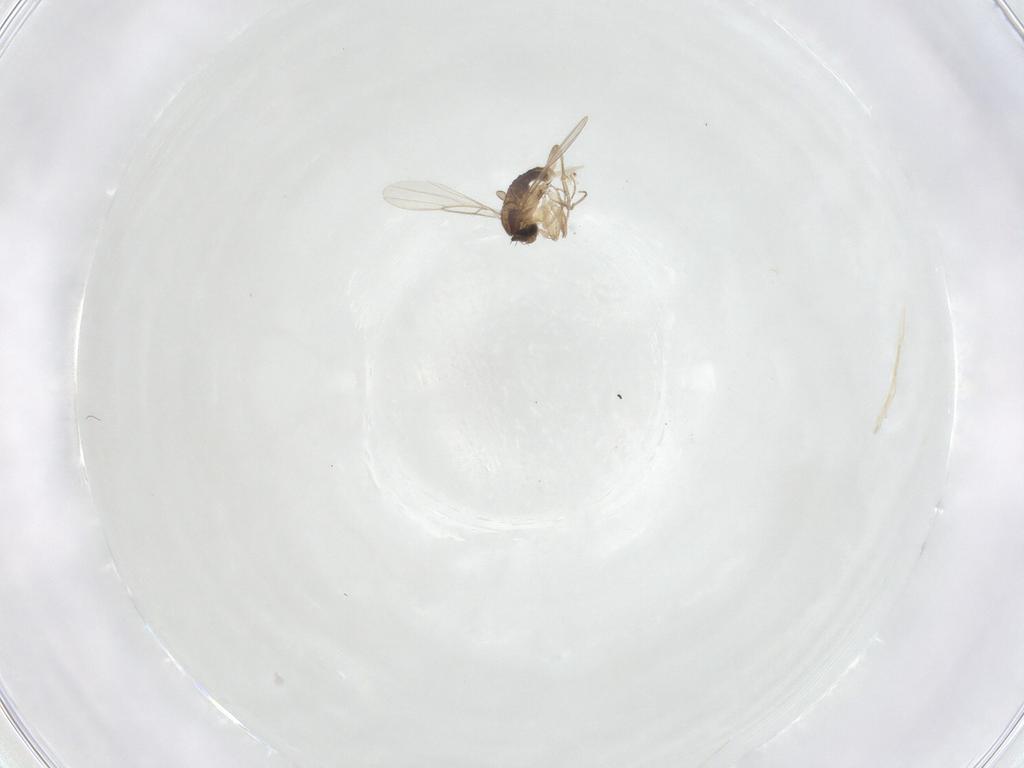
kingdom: Animalia
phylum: Arthropoda
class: Insecta
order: Diptera
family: Phoridae
